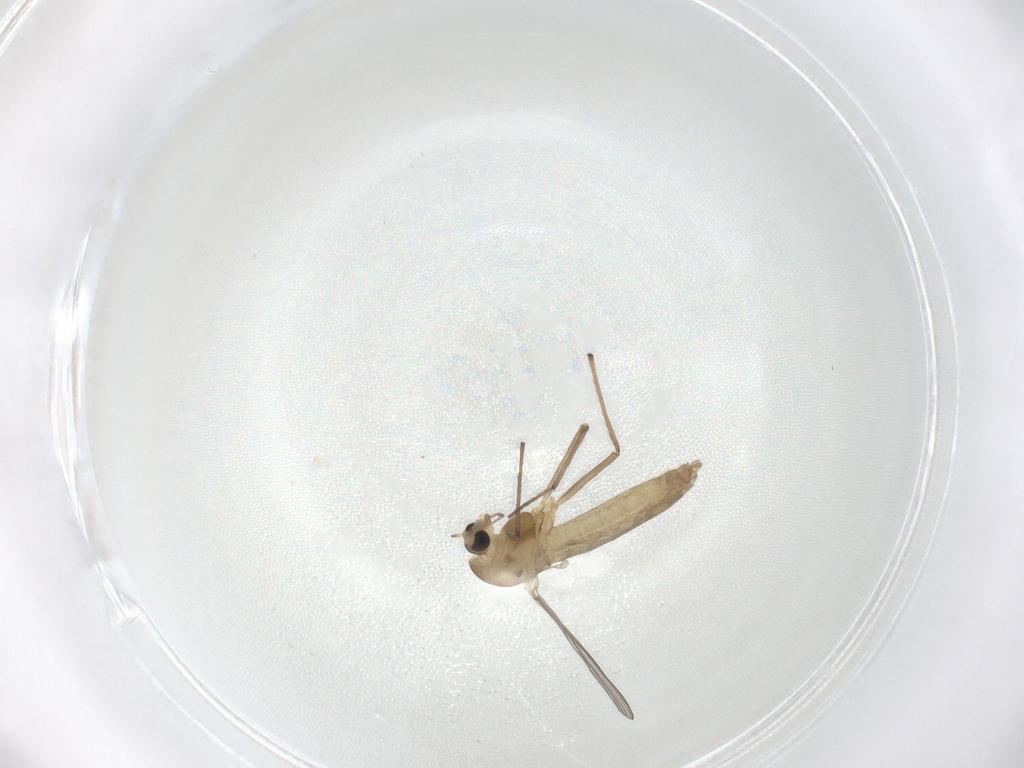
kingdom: Animalia
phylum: Arthropoda
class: Insecta
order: Diptera
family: Chironomidae
